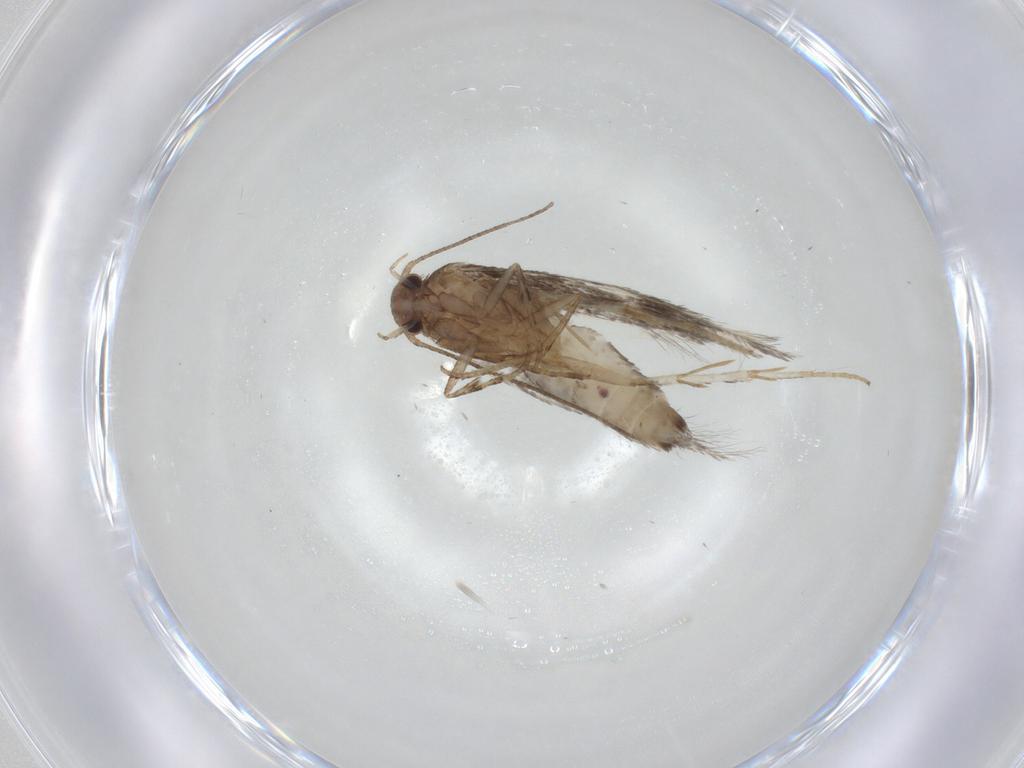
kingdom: Animalia
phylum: Arthropoda
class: Insecta
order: Lepidoptera
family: Elachistidae
